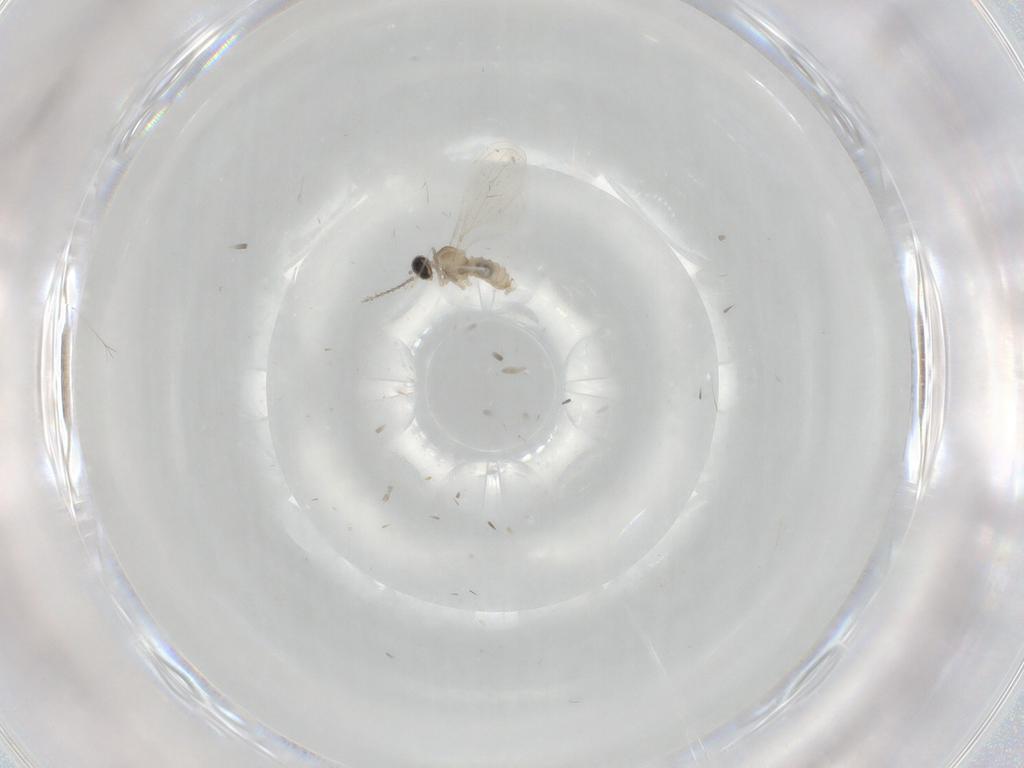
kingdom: Animalia
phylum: Arthropoda
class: Insecta
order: Diptera
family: Cecidomyiidae
